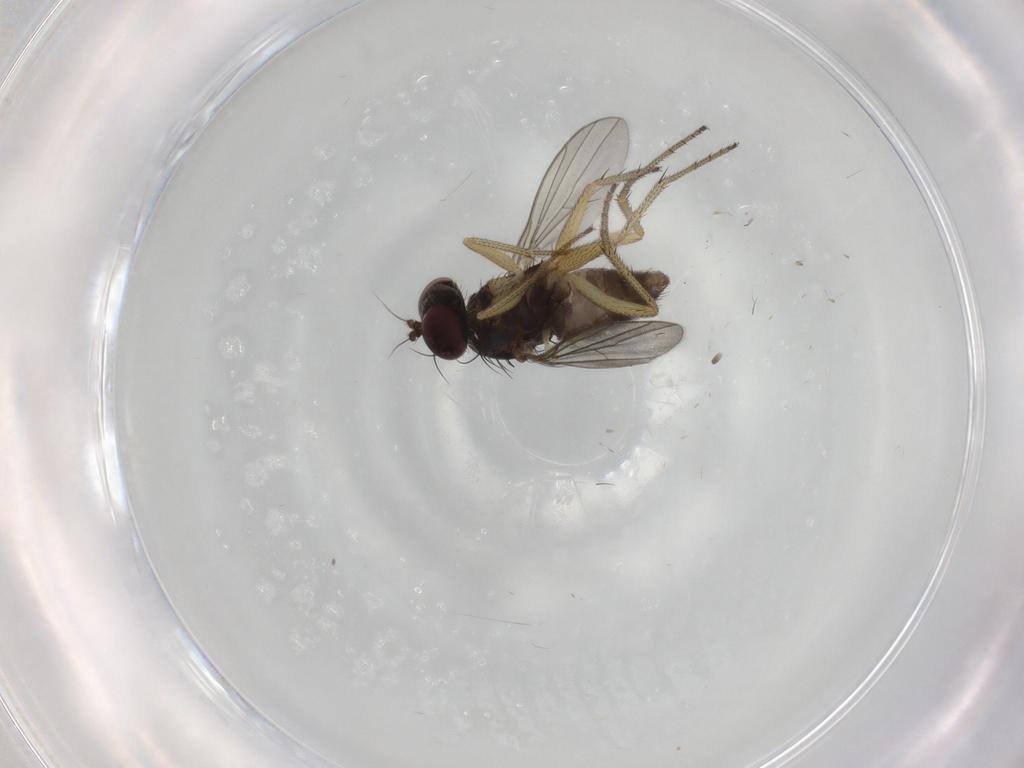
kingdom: Animalia
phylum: Arthropoda
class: Insecta
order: Diptera
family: Dolichopodidae
